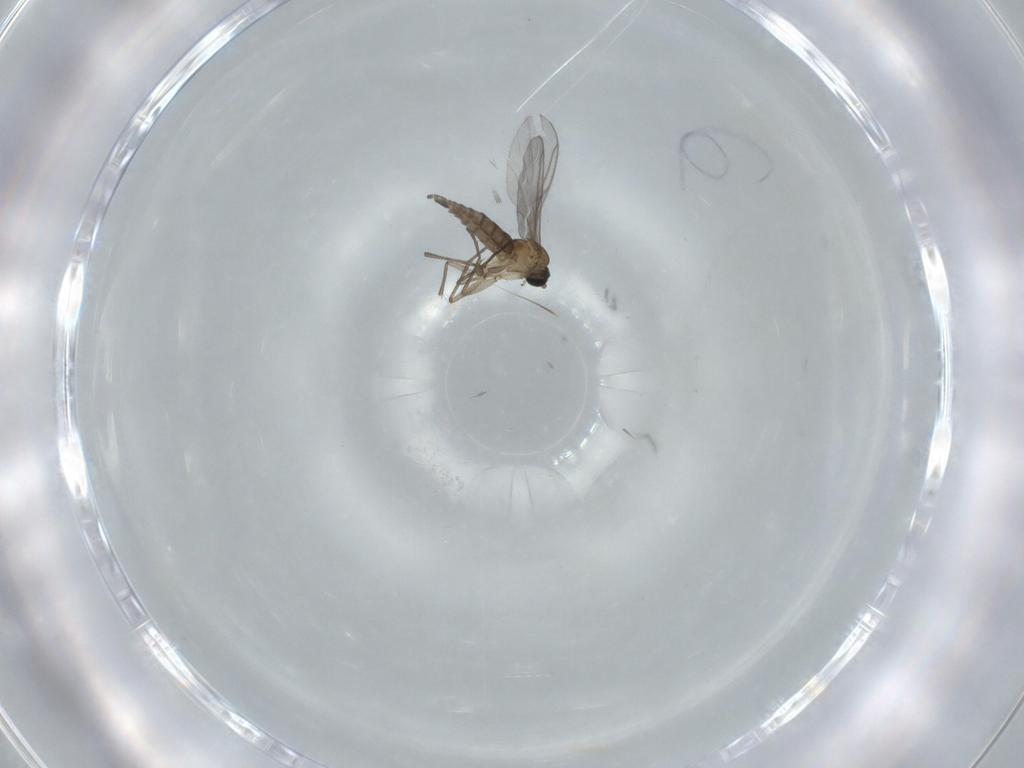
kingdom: Animalia
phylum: Arthropoda
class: Insecta
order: Diptera
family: Sciaridae
